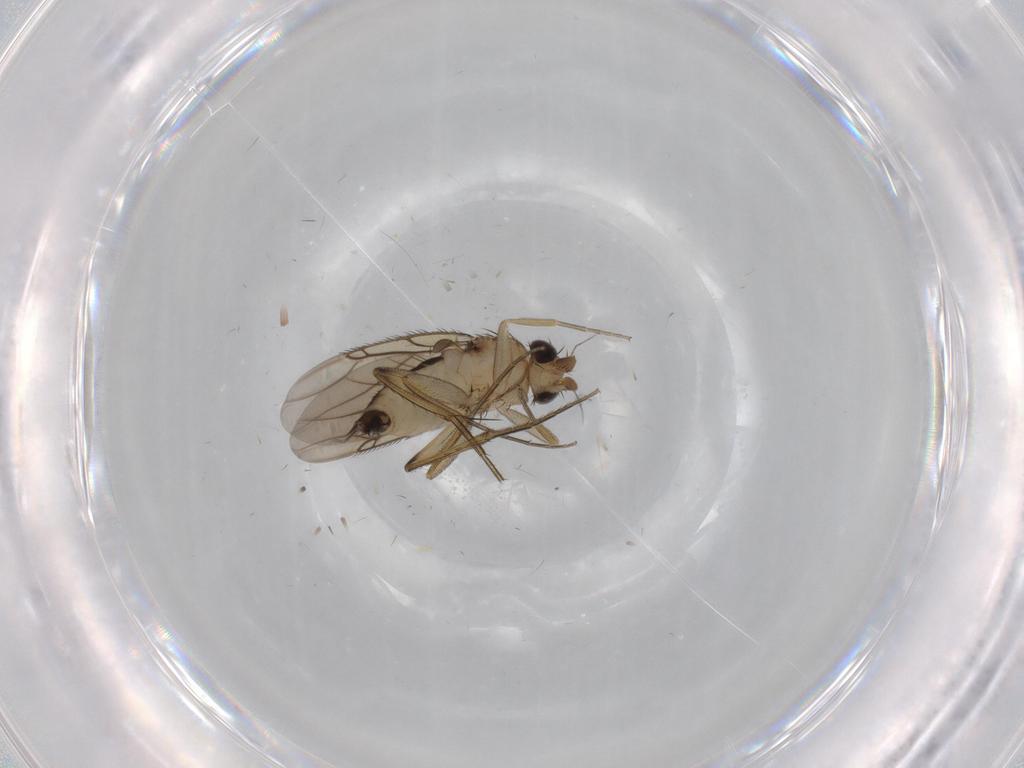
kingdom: Animalia
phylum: Arthropoda
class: Insecta
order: Diptera
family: Phoridae
